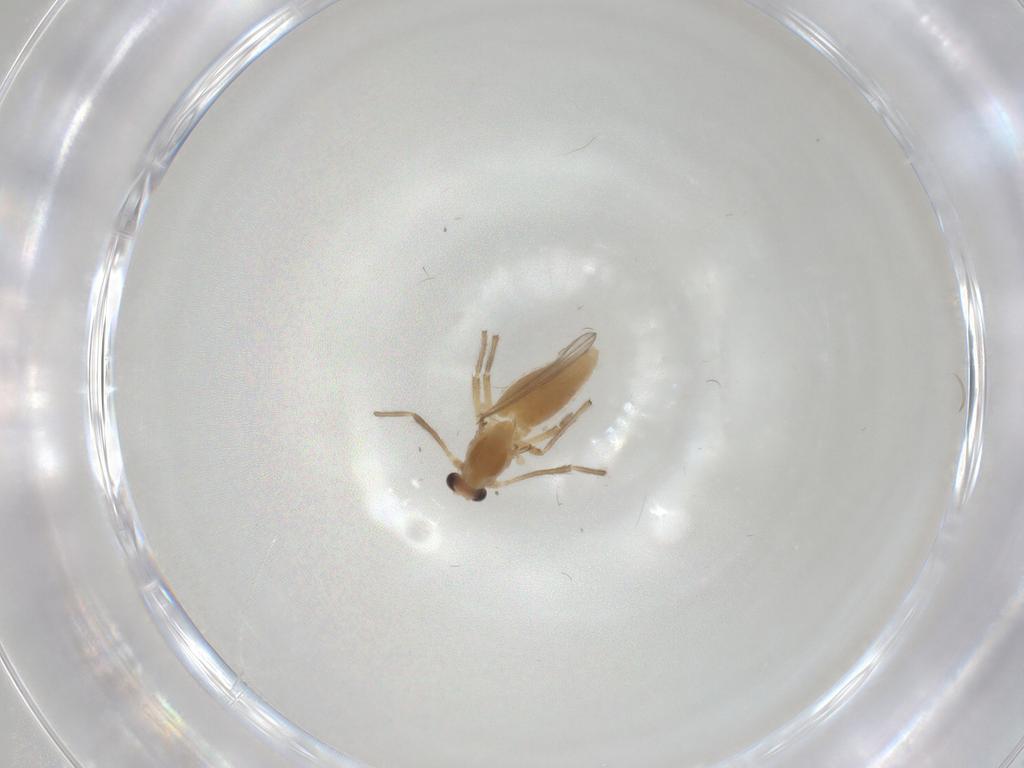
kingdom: Animalia
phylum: Arthropoda
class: Insecta
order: Diptera
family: Chironomidae
